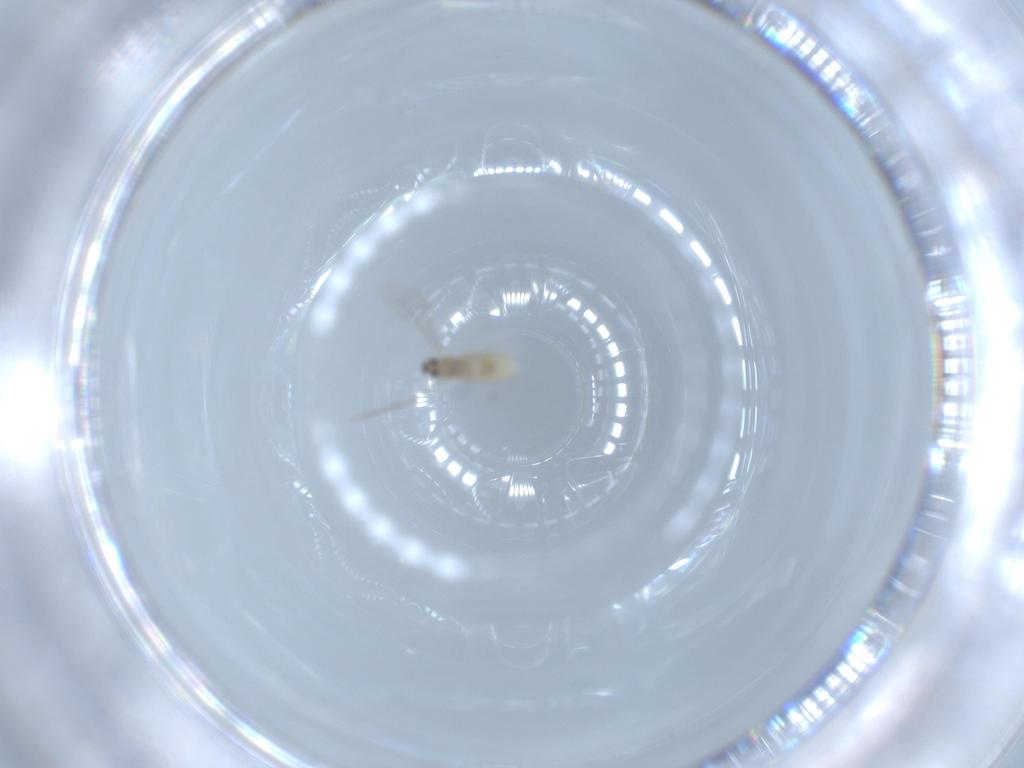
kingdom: Animalia
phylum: Arthropoda
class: Insecta
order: Diptera
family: Cecidomyiidae
